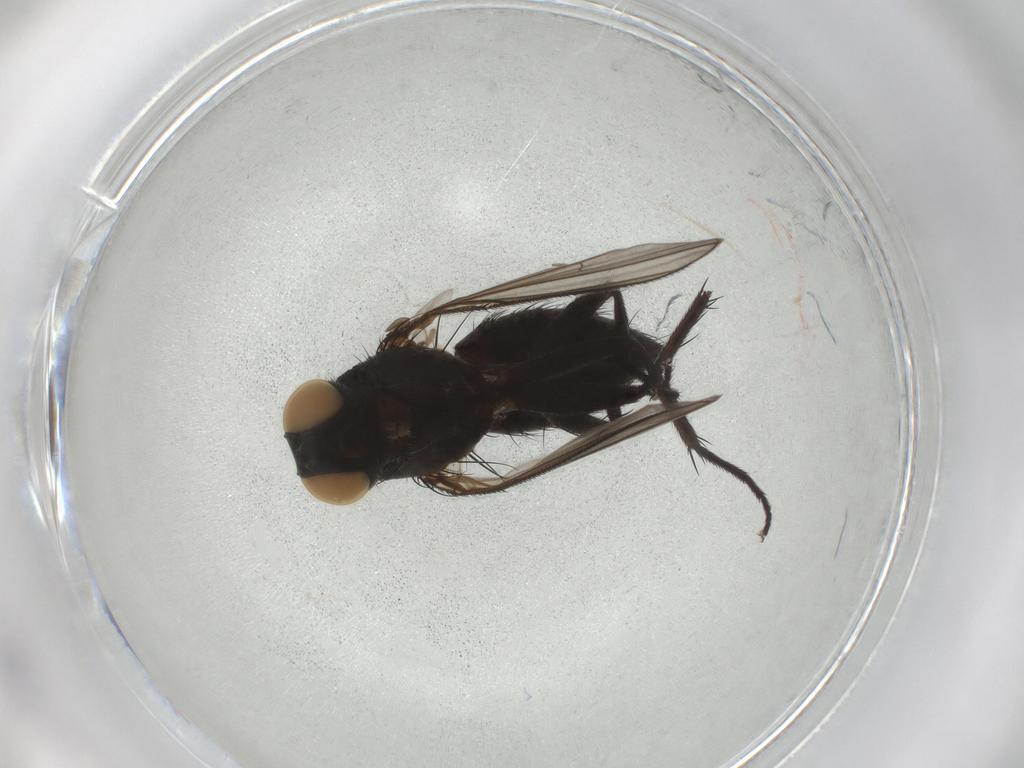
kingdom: Animalia
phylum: Arthropoda
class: Insecta
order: Diptera
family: Muscidae
